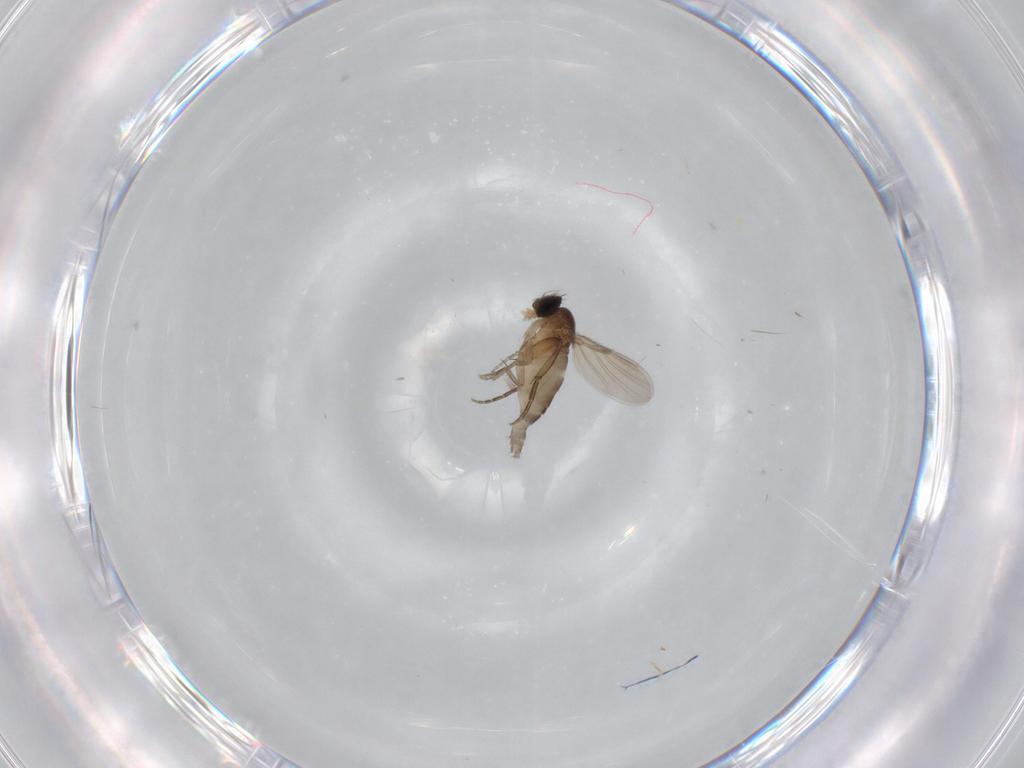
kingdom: Animalia
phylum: Arthropoda
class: Insecta
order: Diptera
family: Phoridae
